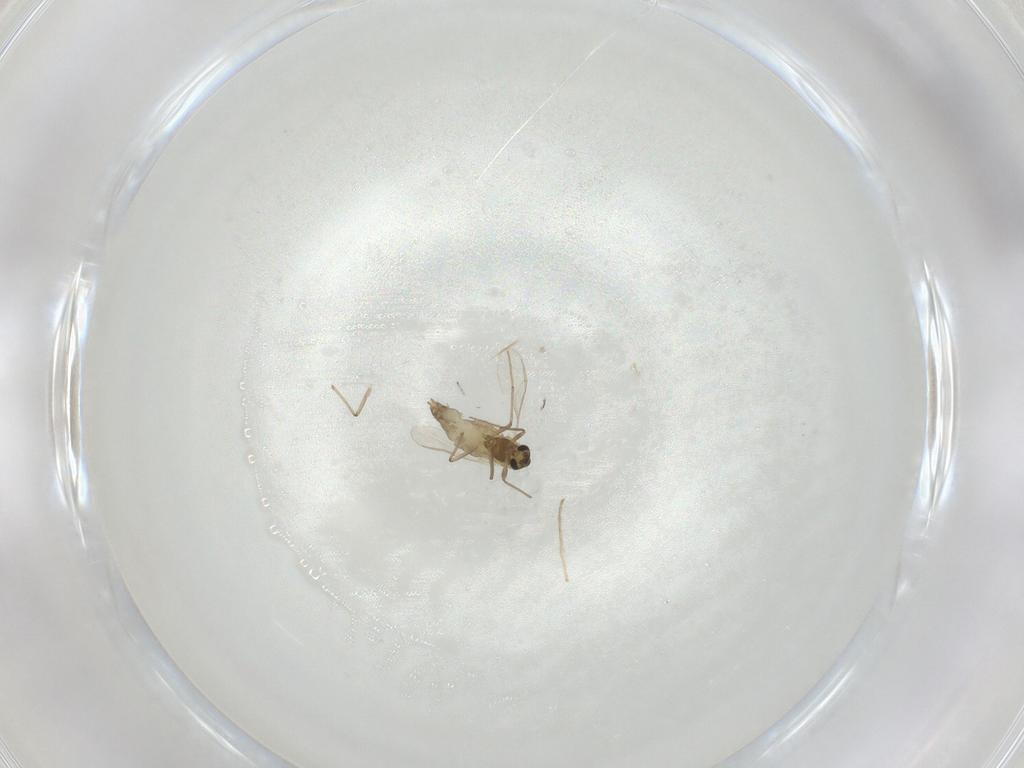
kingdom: Animalia
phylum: Arthropoda
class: Insecta
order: Diptera
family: Chironomidae
